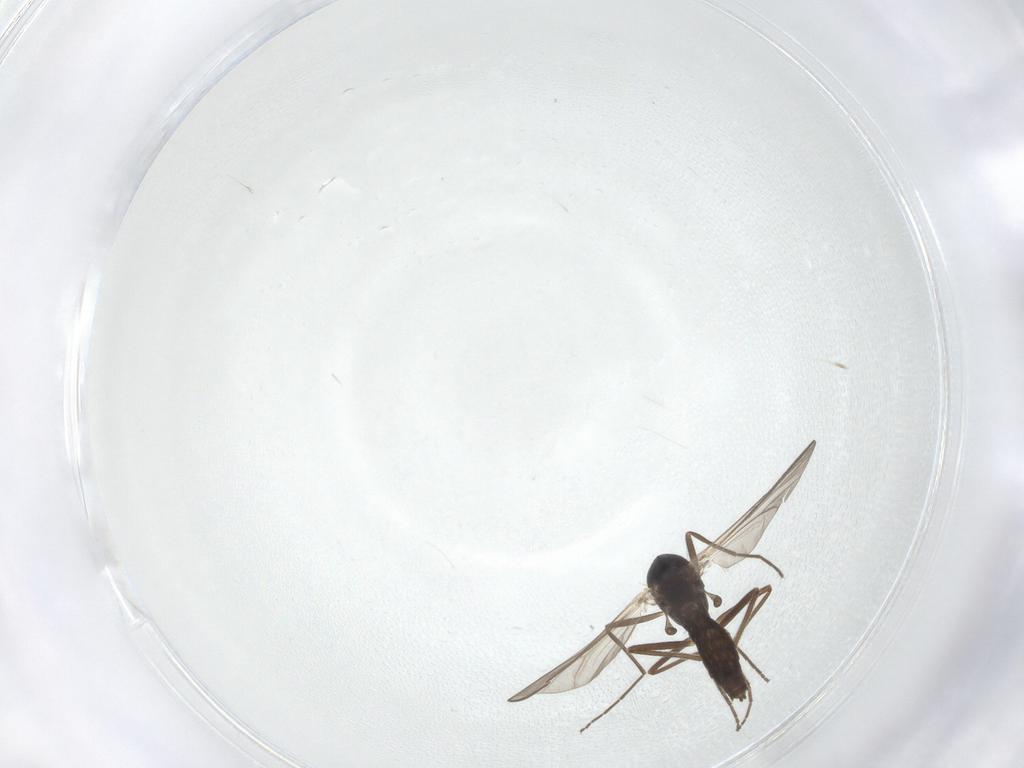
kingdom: Animalia
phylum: Arthropoda
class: Insecta
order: Diptera
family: Chironomidae
